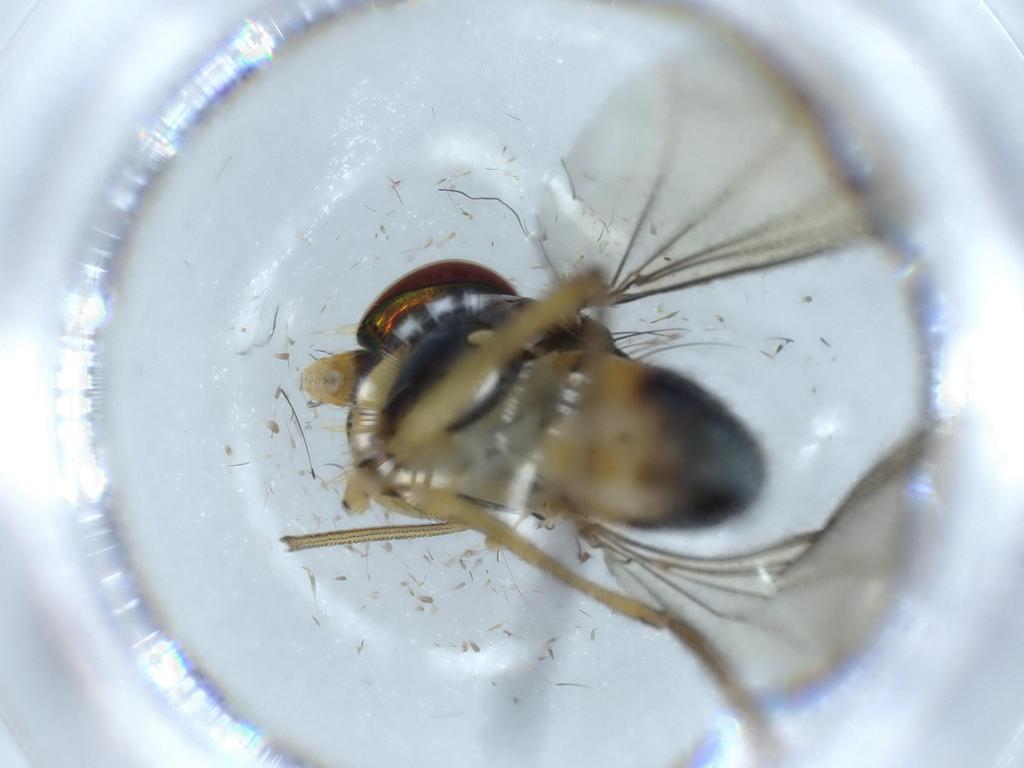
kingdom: Animalia
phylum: Arthropoda
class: Insecta
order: Diptera
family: Dolichopodidae
